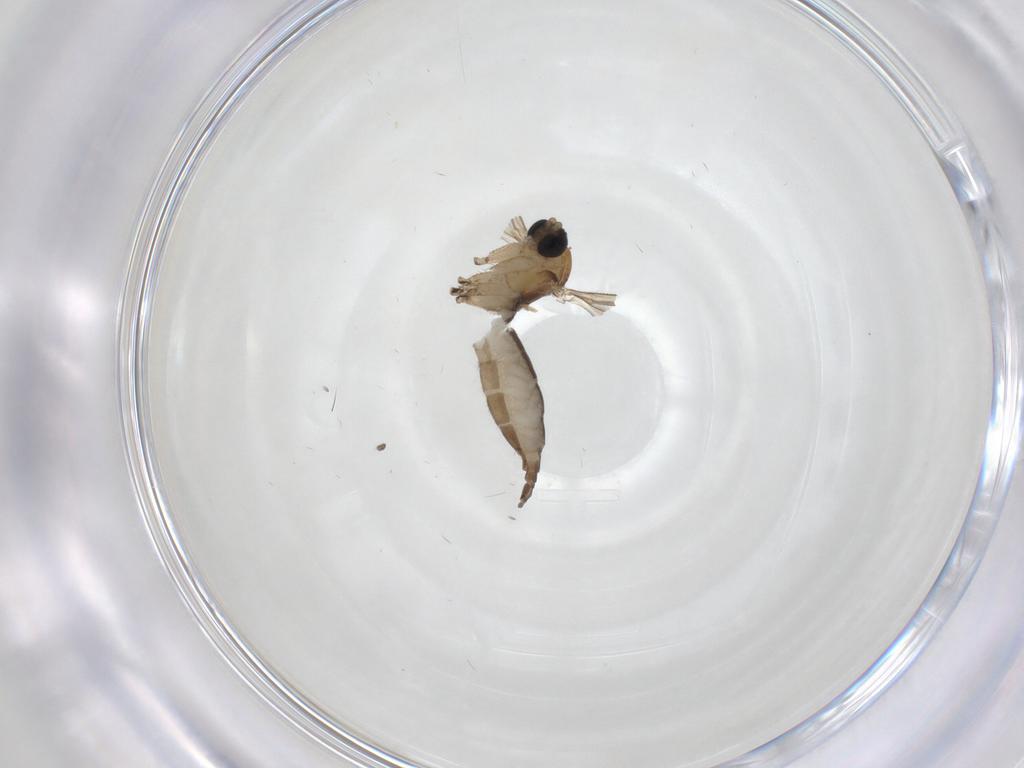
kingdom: Animalia
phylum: Arthropoda
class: Insecta
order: Diptera
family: Sciaridae
